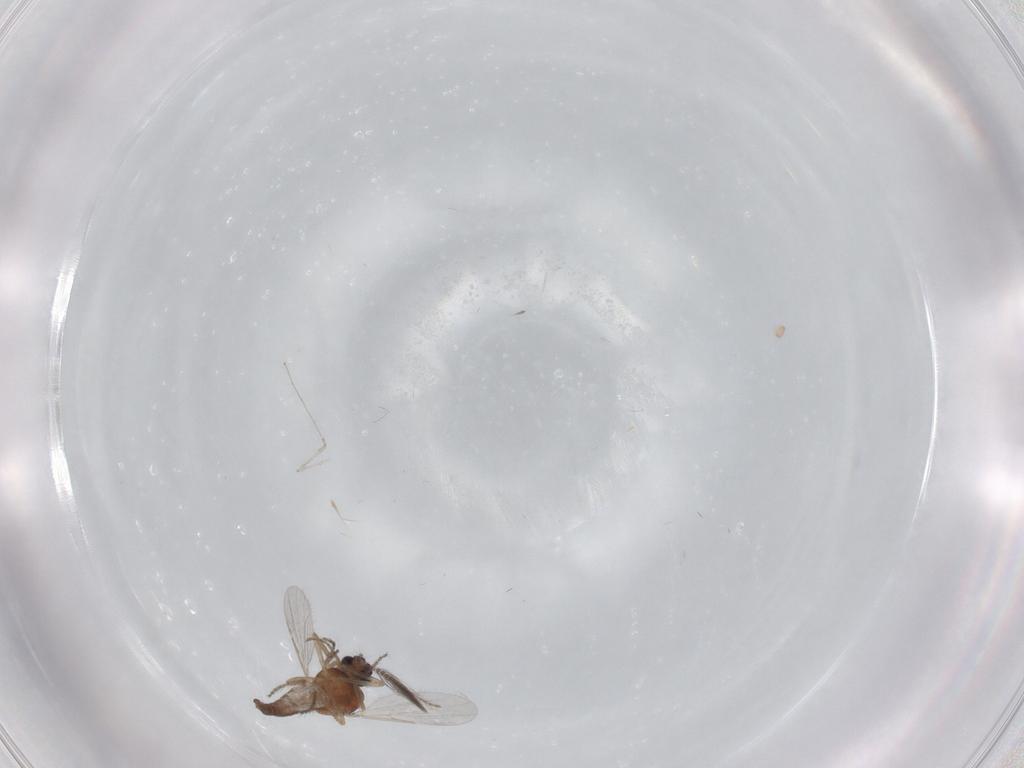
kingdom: Animalia
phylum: Arthropoda
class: Insecta
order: Diptera
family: Ceratopogonidae
